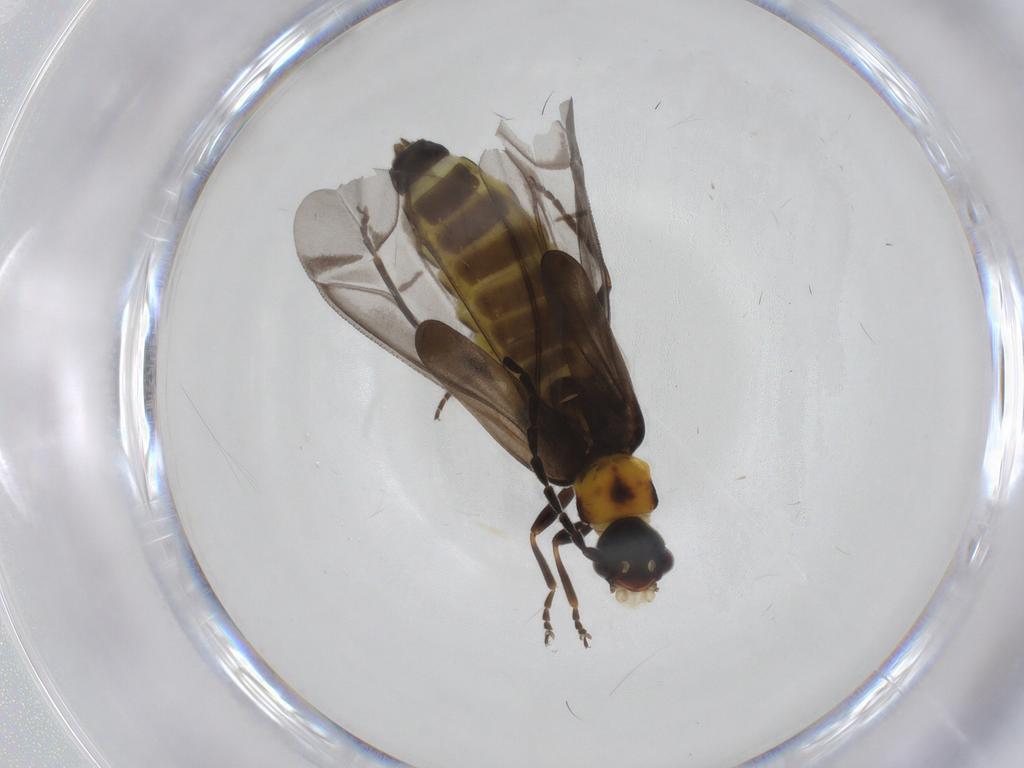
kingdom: Animalia
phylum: Arthropoda
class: Insecta
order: Coleoptera
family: Cantharidae
